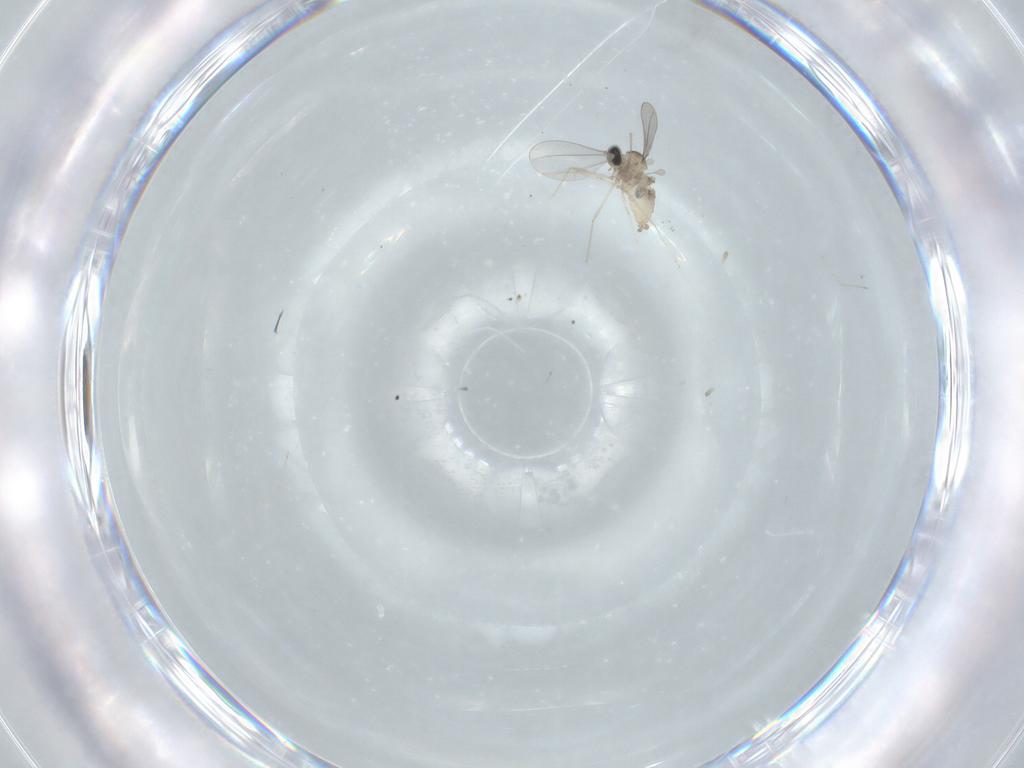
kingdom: Animalia
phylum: Arthropoda
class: Insecta
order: Diptera
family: Cecidomyiidae
